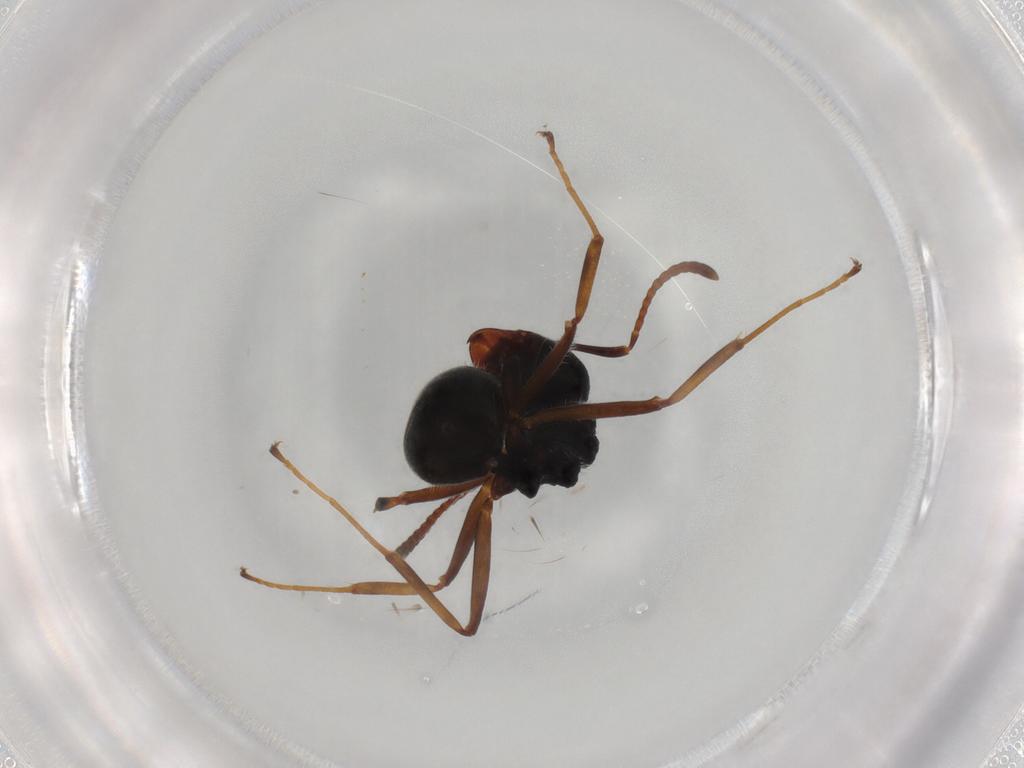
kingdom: Animalia
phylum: Arthropoda
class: Insecta
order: Hymenoptera
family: Formicidae
